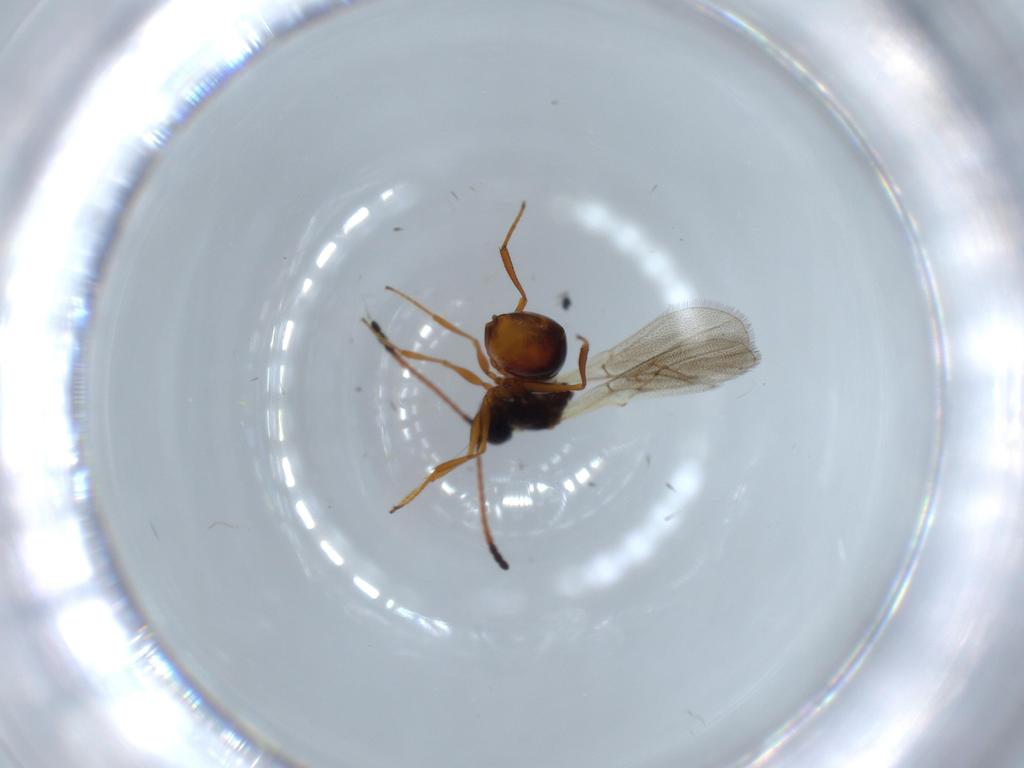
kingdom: Animalia
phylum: Arthropoda
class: Insecta
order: Hymenoptera
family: Figitidae
